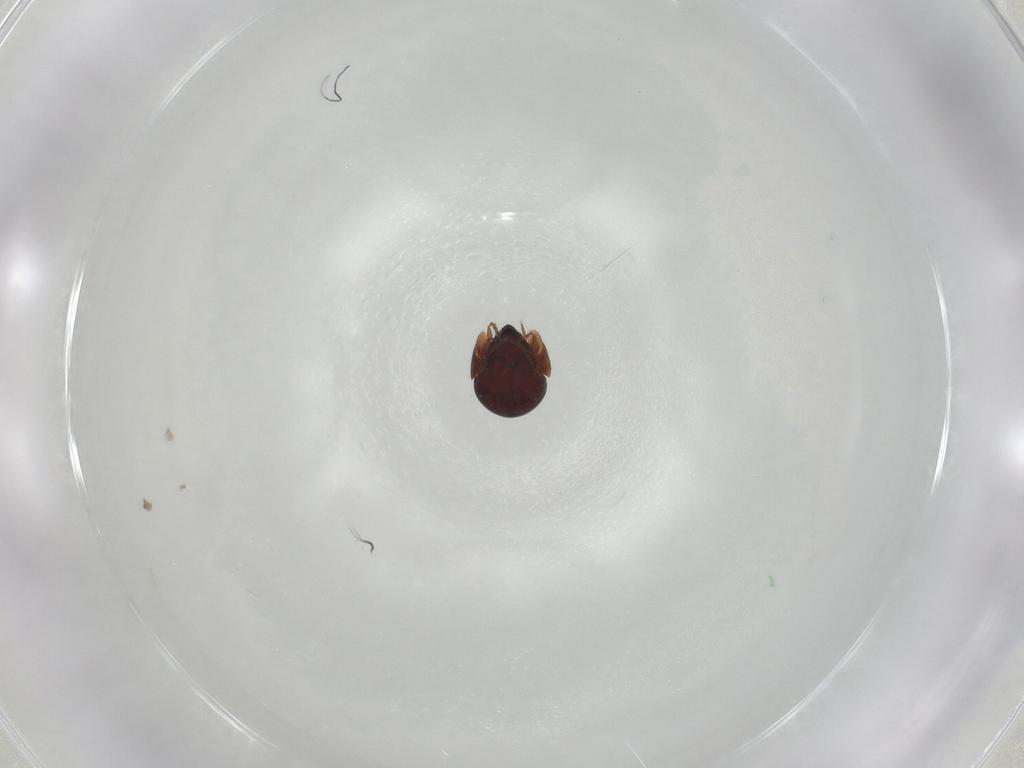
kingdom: Animalia
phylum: Arthropoda
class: Arachnida
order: Sarcoptiformes
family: Galumnidae
